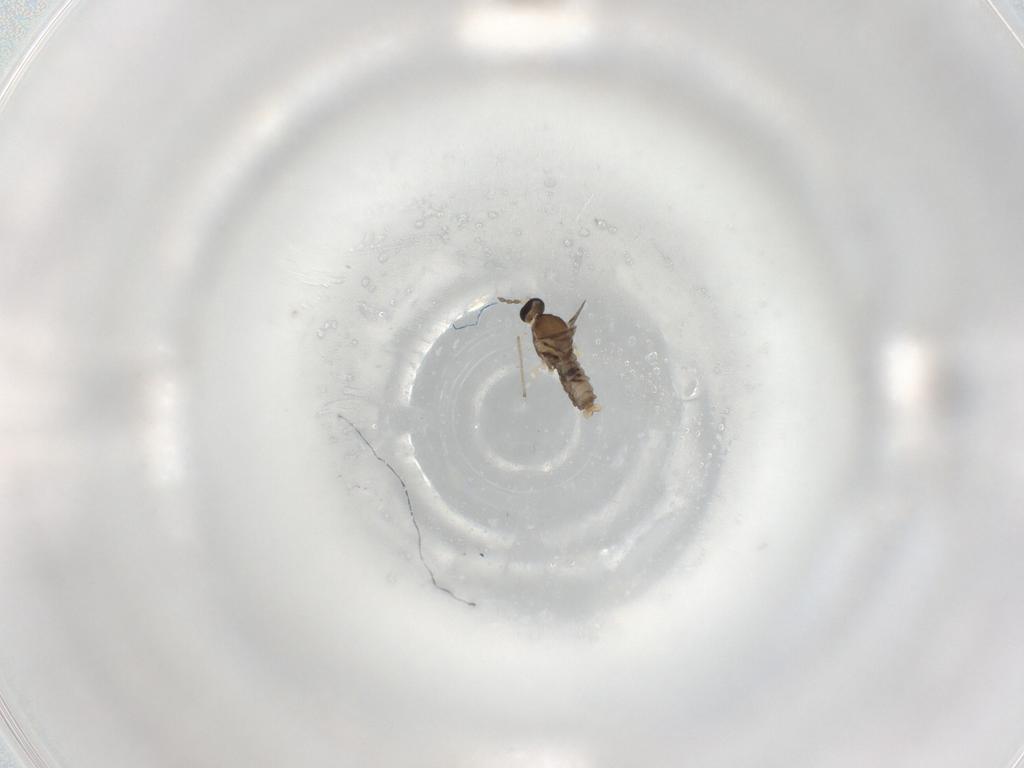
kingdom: Animalia
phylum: Arthropoda
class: Insecta
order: Diptera
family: Cecidomyiidae
